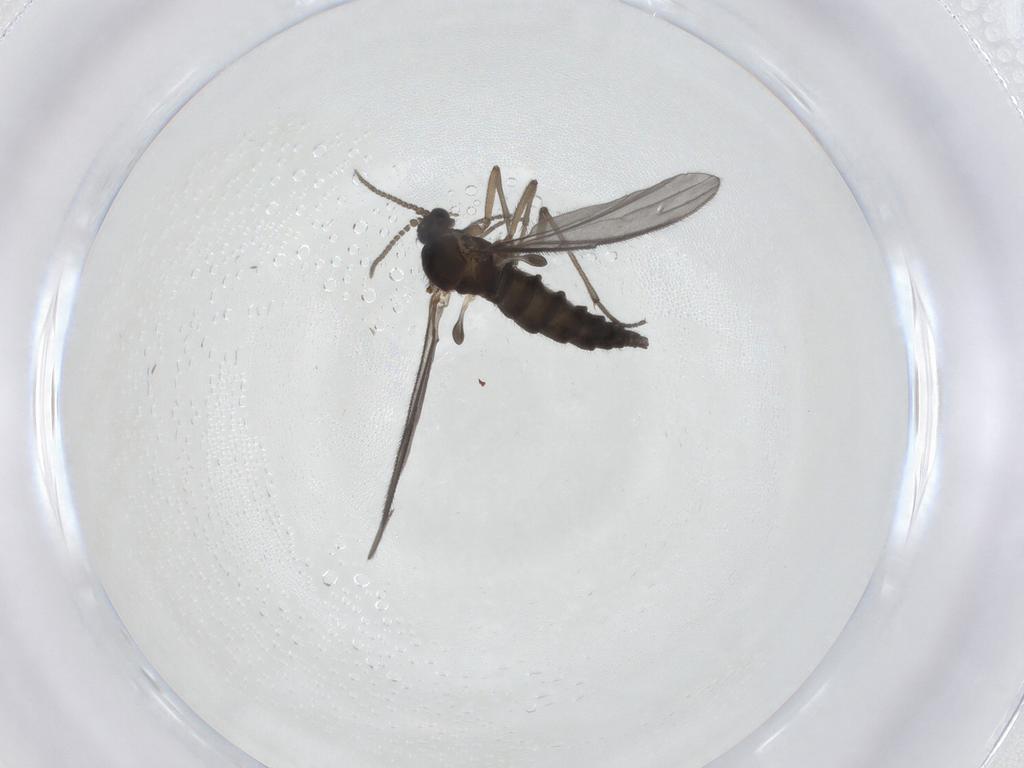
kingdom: Animalia
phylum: Arthropoda
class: Insecta
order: Diptera
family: Sciaridae
